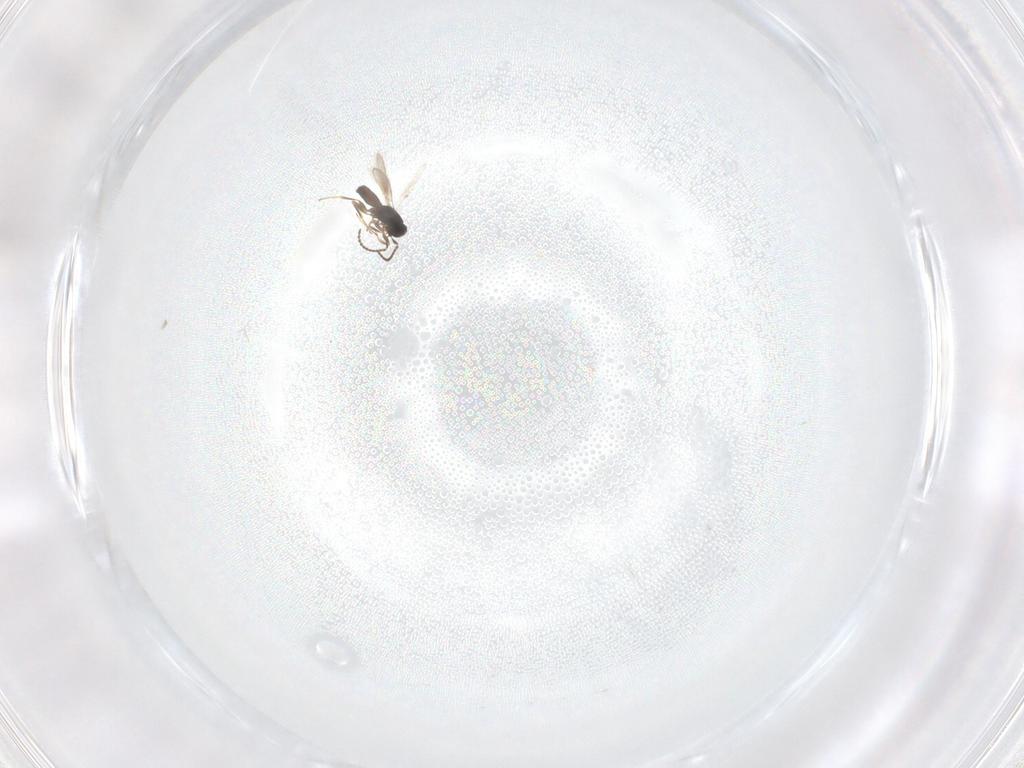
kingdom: Animalia
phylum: Arthropoda
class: Insecta
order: Hymenoptera
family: Scelionidae
